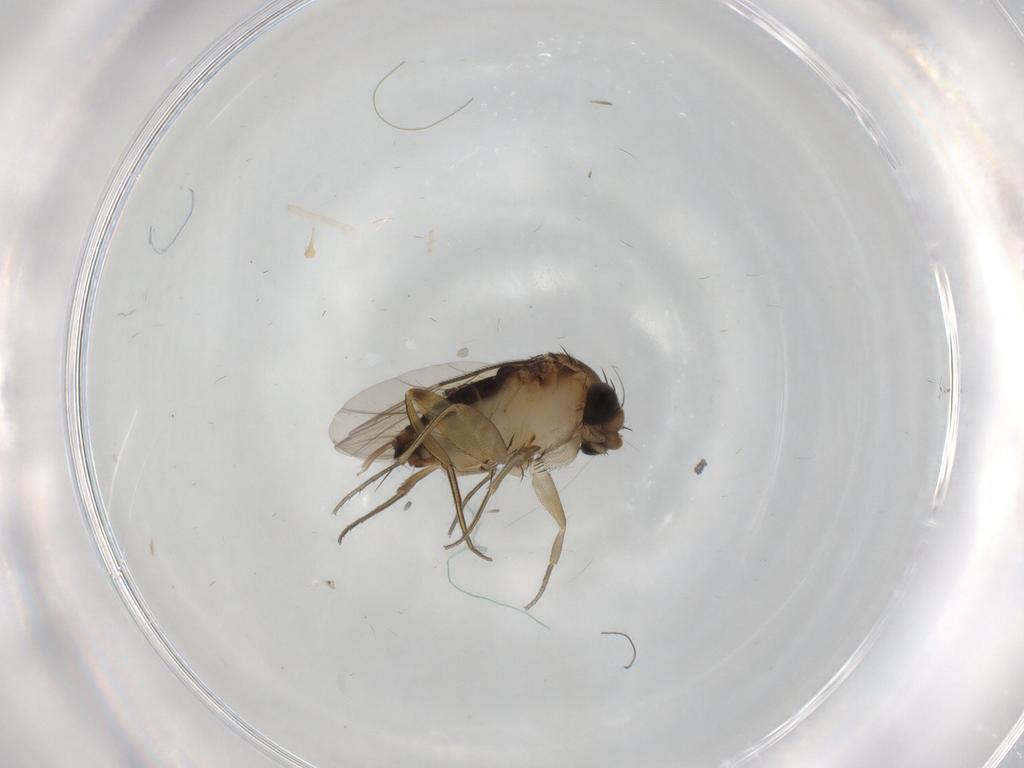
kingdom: Animalia
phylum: Arthropoda
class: Insecta
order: Diptera
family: Phoridae
